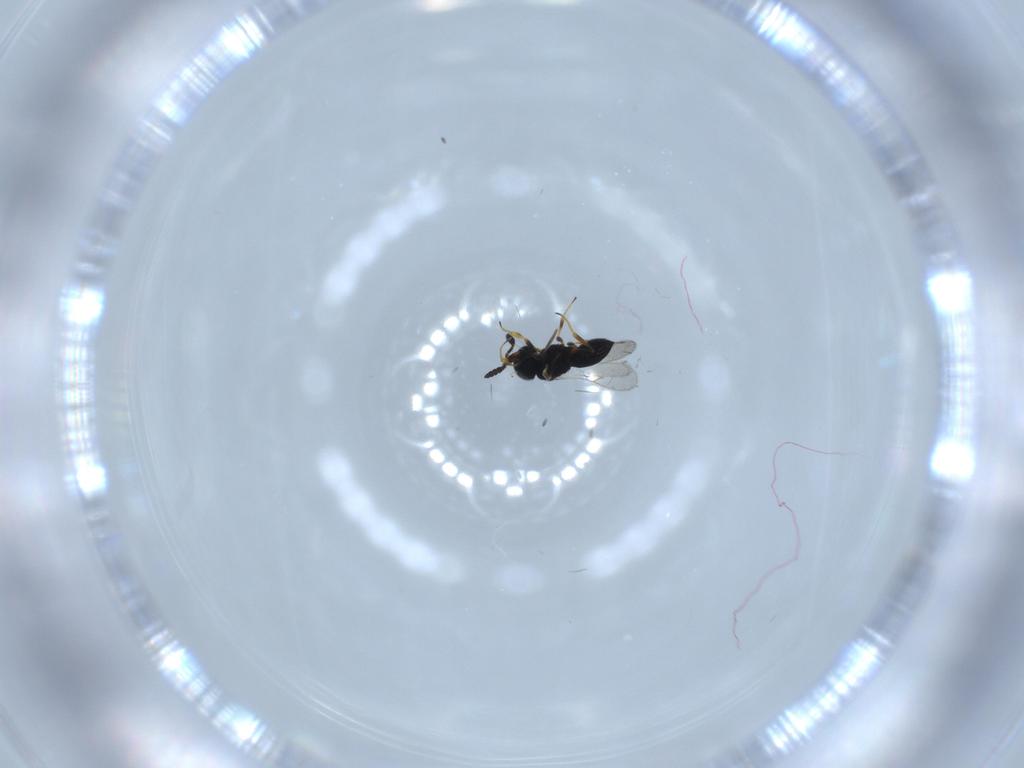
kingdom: Animalia
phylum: Arthropoda
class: Insecta
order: Hymenoptera
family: Scelionidae
